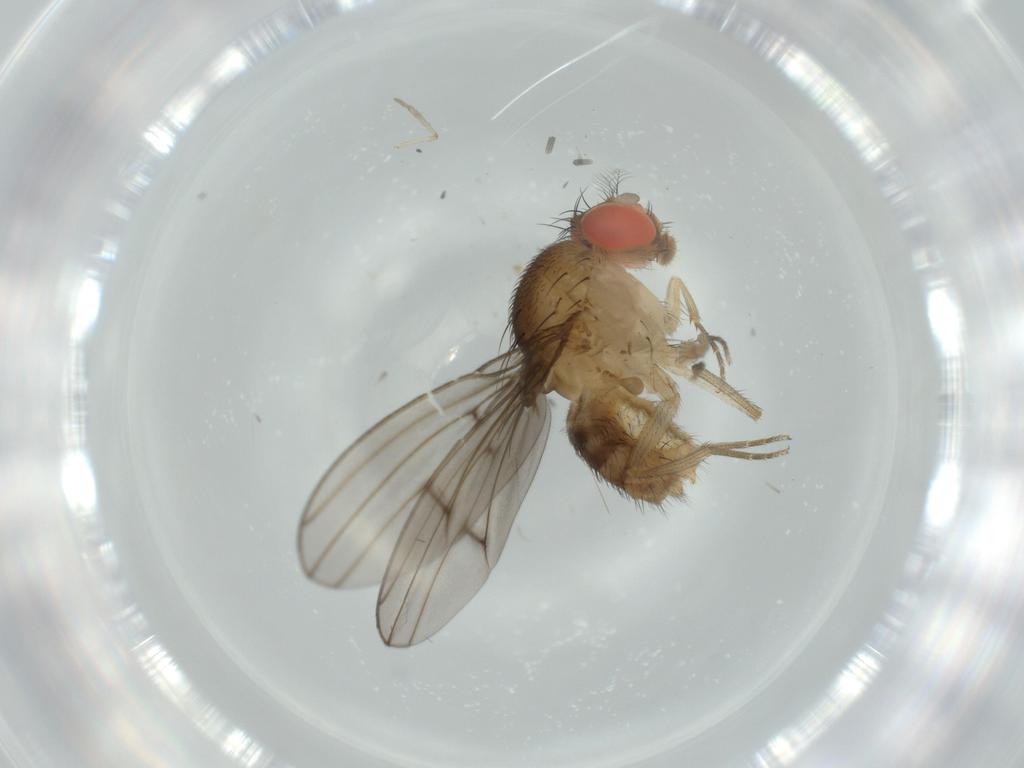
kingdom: Animalia
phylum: Arthropoda
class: Insecta
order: Diptera
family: Drosophilidae
